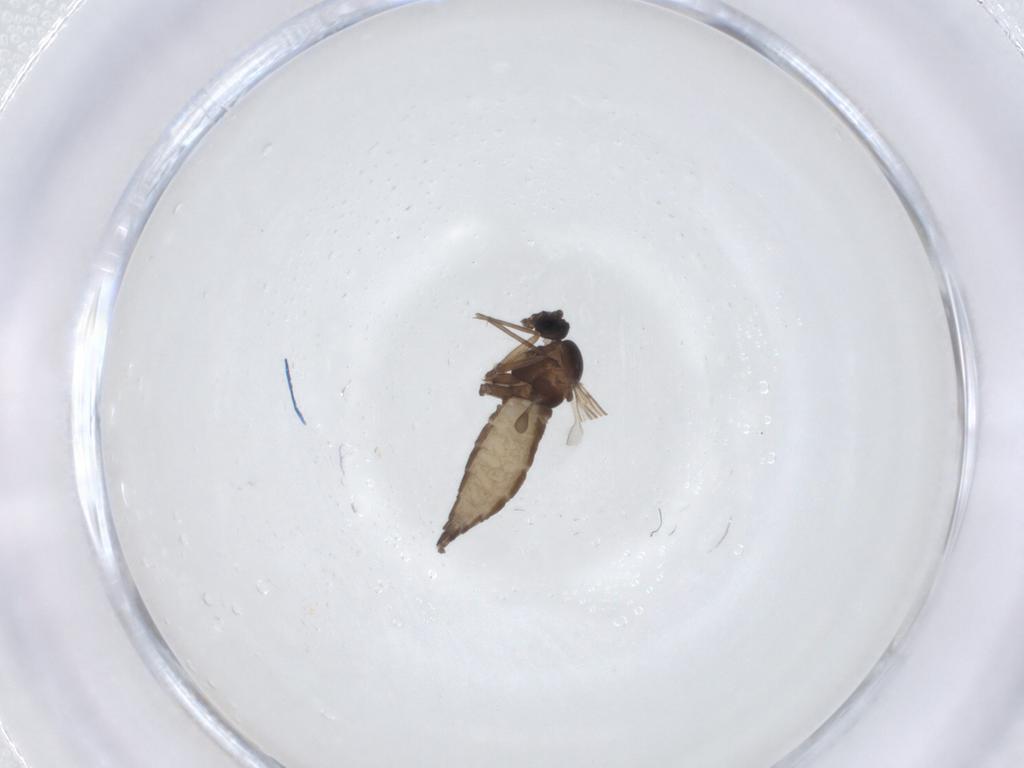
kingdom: Animalia
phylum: Arthropoda
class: Insecta
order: Diptera
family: Sciaridae
